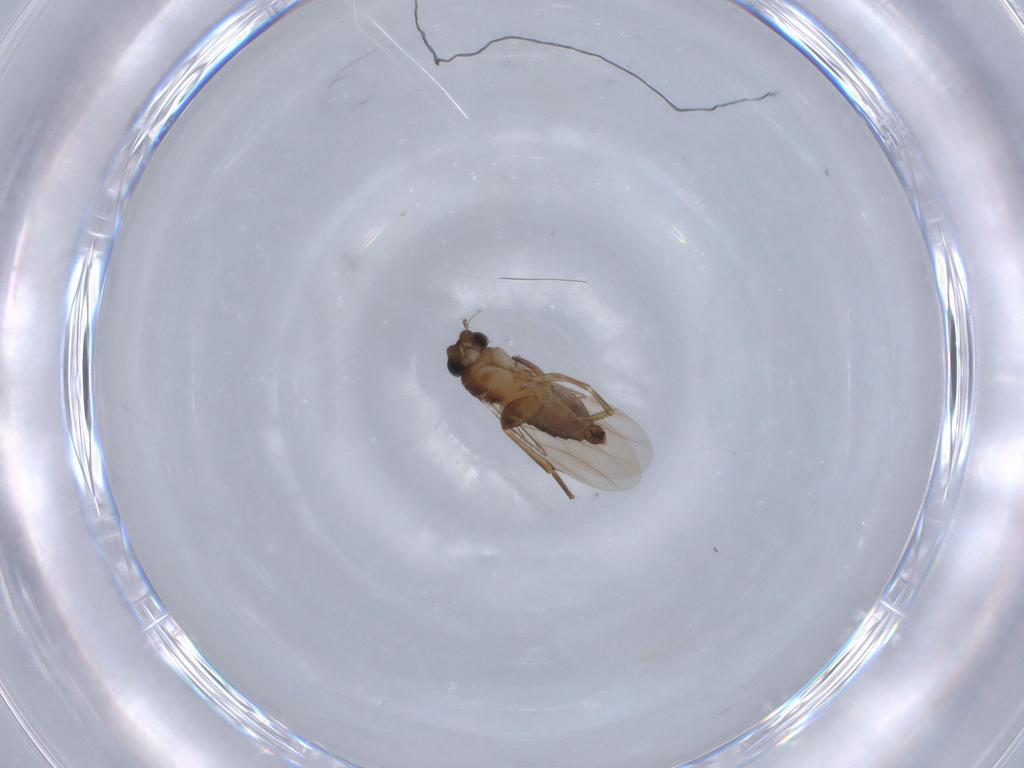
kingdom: Animalia
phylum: Arthropoda
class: Insecta
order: Diptera
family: Phoridae
